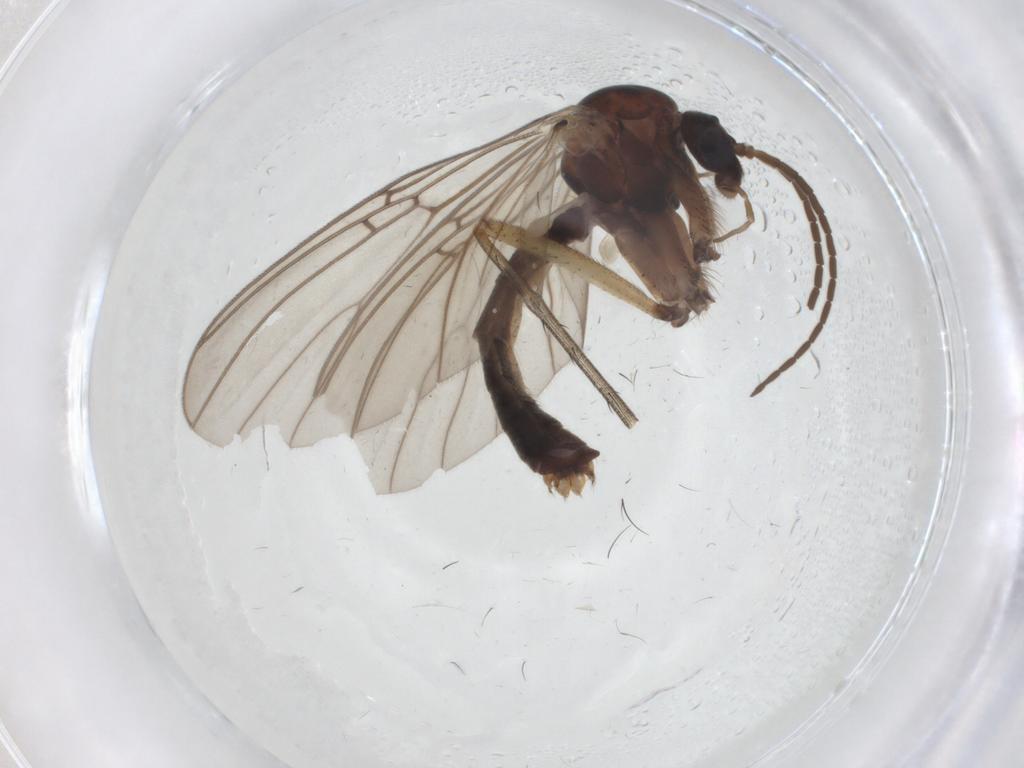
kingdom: Animalia
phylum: Arthropoda
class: Insecta
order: Diptera
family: Mycetophilidae
